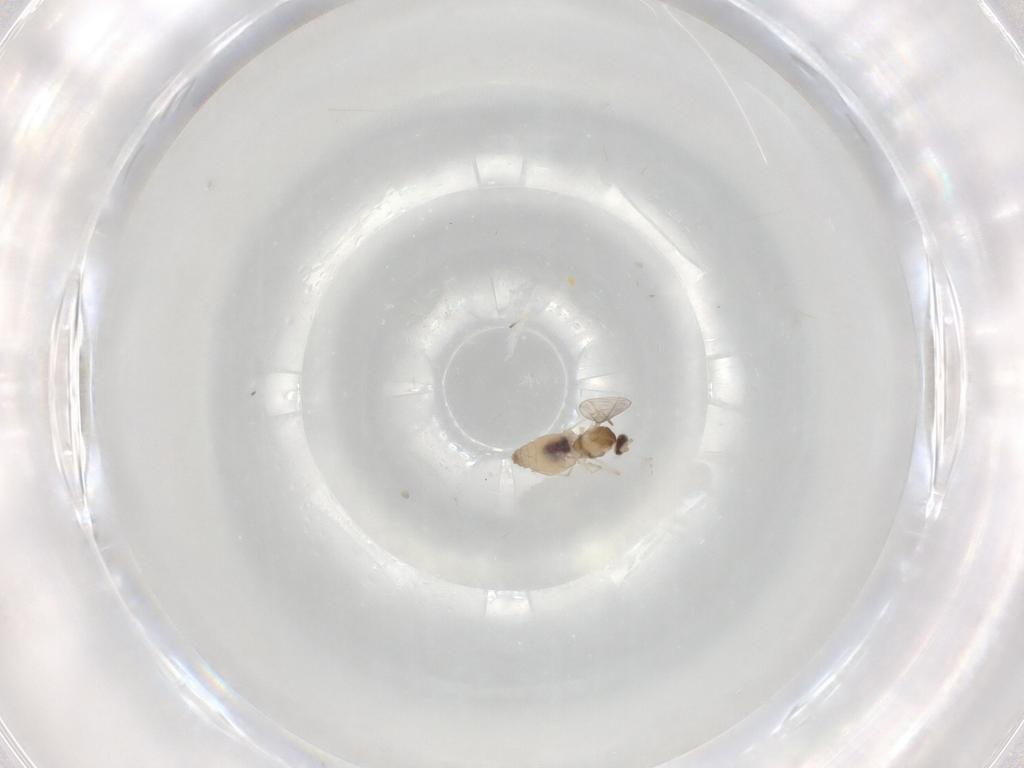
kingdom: Animalia
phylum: Arthropoda
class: Insecta
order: Diptera
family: Cecidomyiidae
